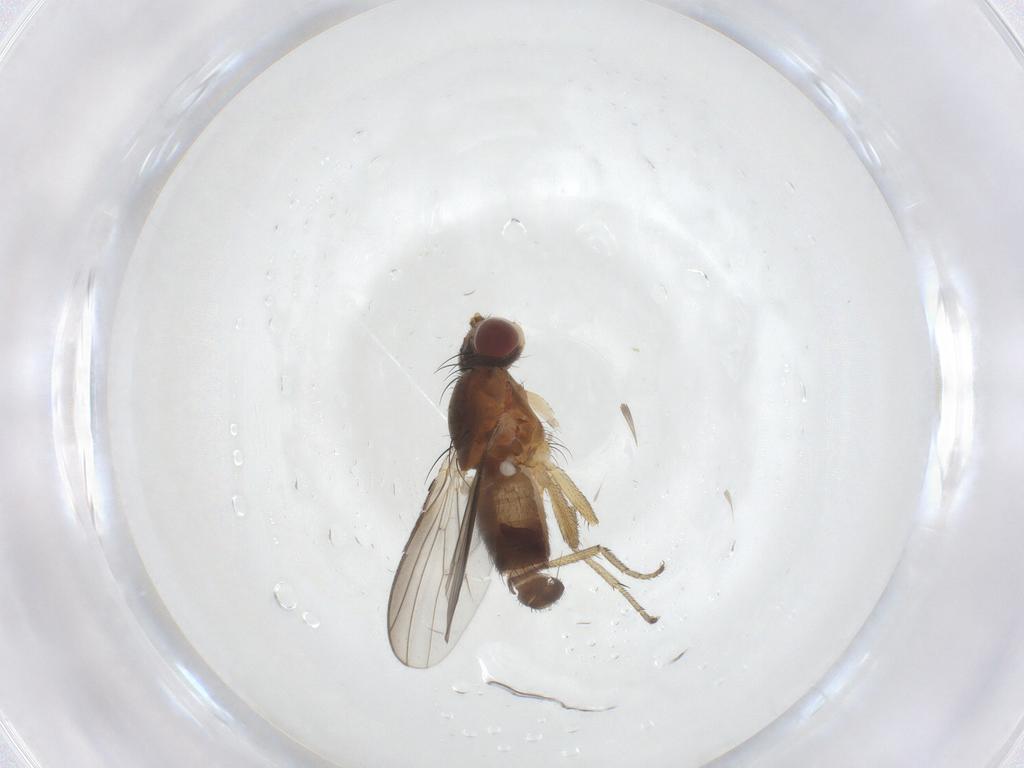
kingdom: Animalia
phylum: Arthropoda
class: Insecta
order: Diptera
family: Heleomyzidae
